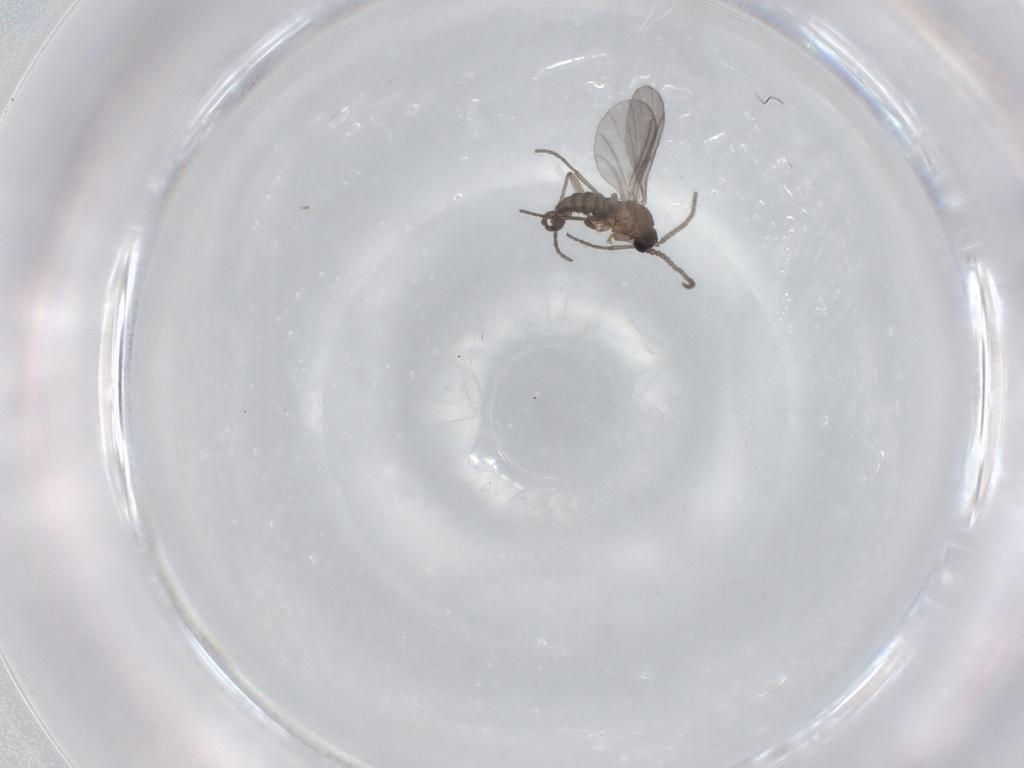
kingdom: Animalia
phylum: Arthropoda
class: Insecta
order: Diptera
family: Sciaridae
